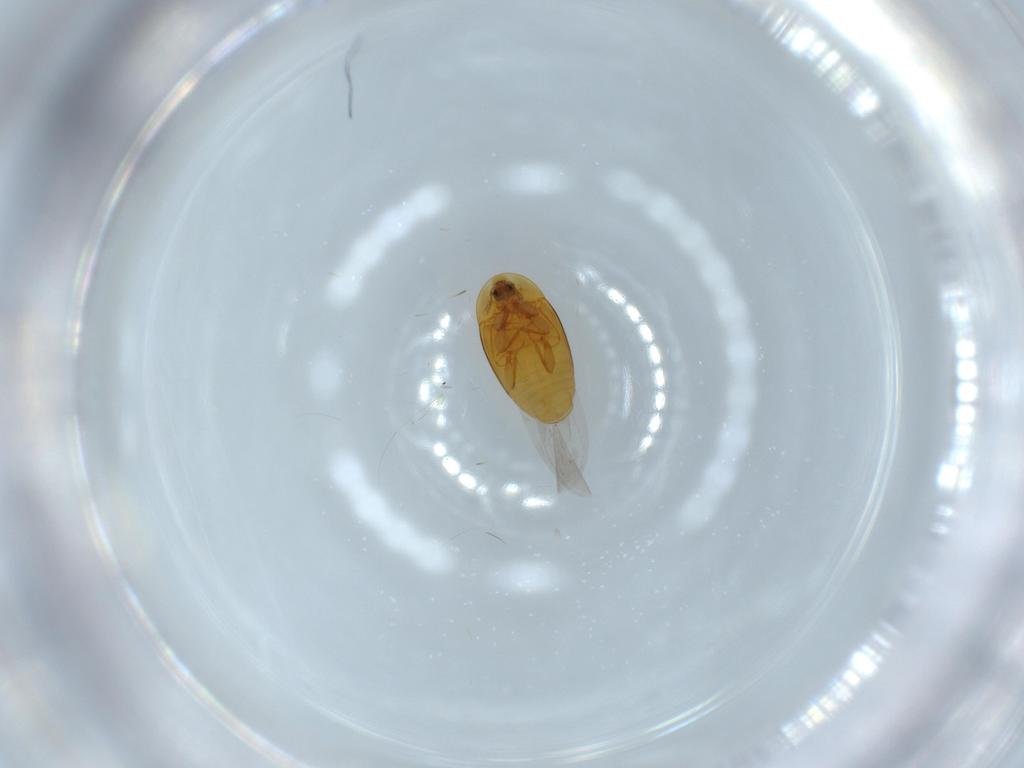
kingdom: Animalia
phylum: Arthropoda
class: Insecta
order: Coleoptera
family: Corylophidae
